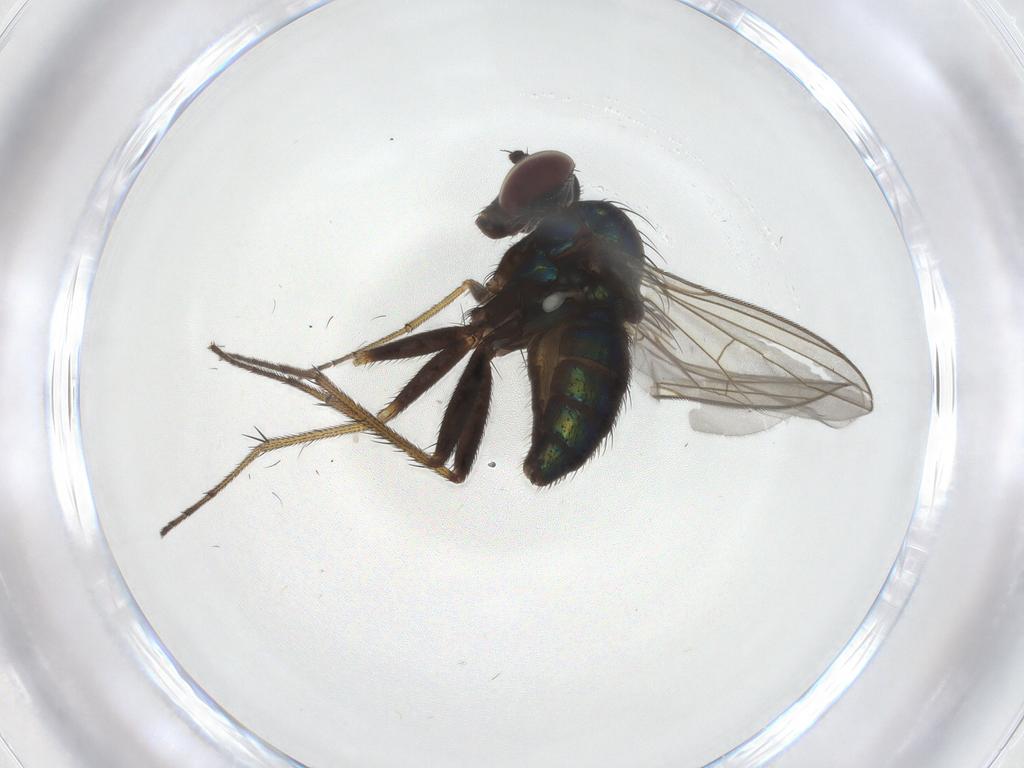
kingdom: Animalia
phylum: Arthropoda
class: Insecta
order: Diptera
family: Dolichopodidae
